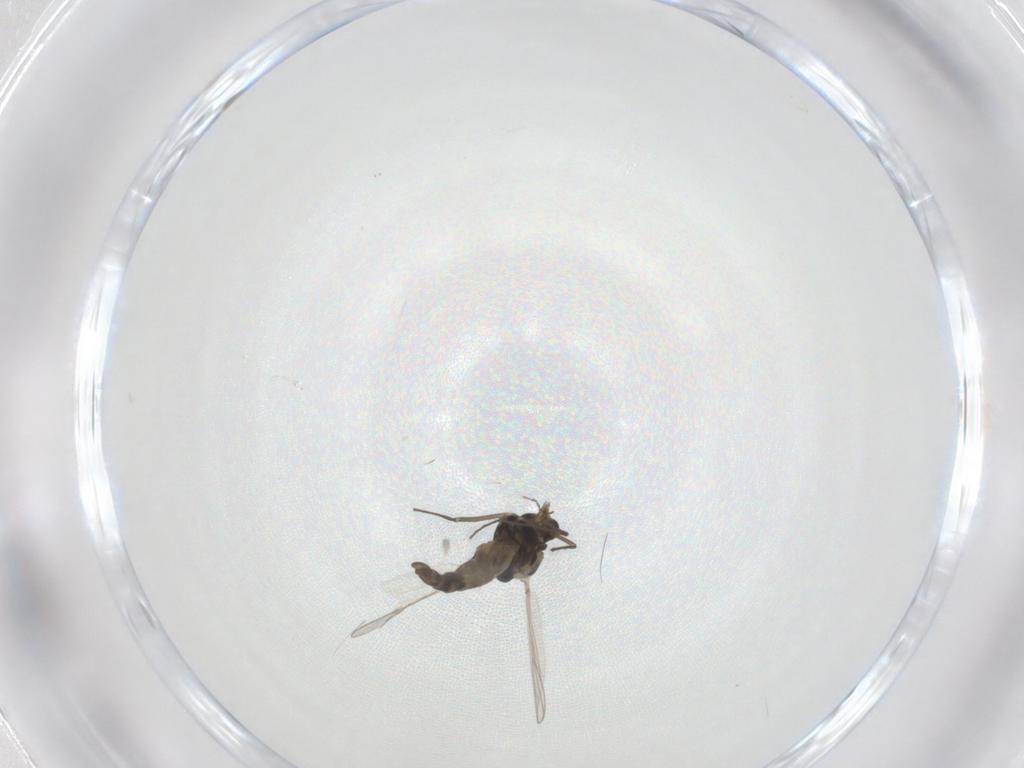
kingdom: Animalia
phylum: Arthropoda
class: Insecta
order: Diptera
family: Chironomidae
